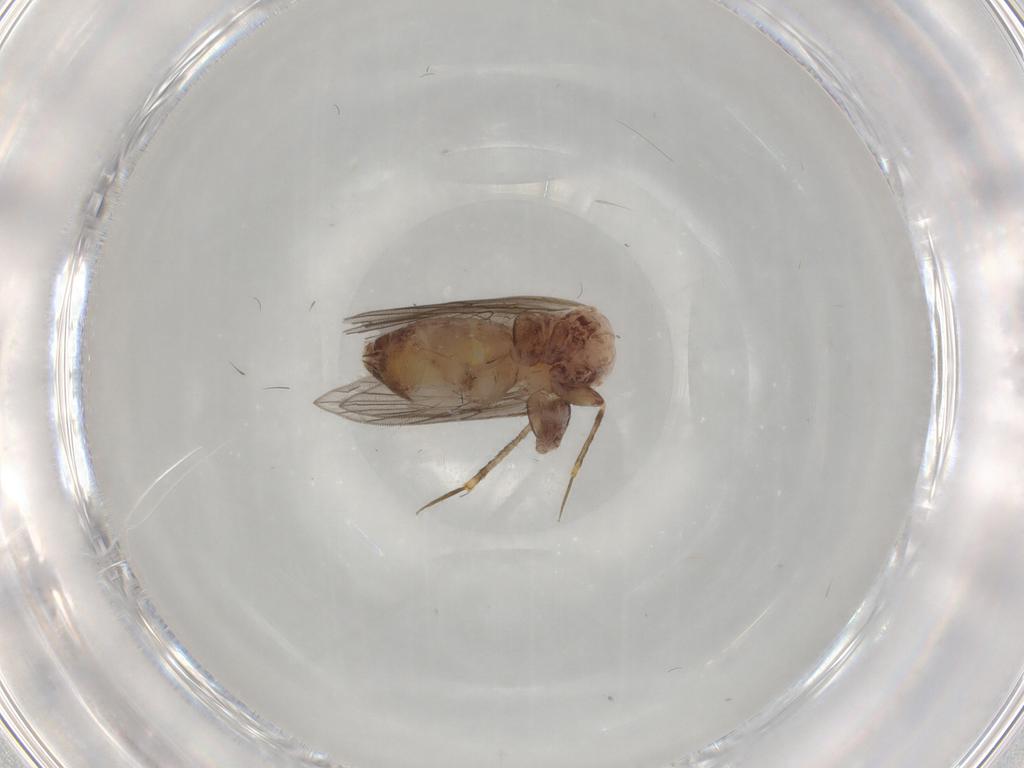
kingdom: Animalia
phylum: Arthropoda
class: Insecta
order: Psocodea
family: Lepidopsocidae
